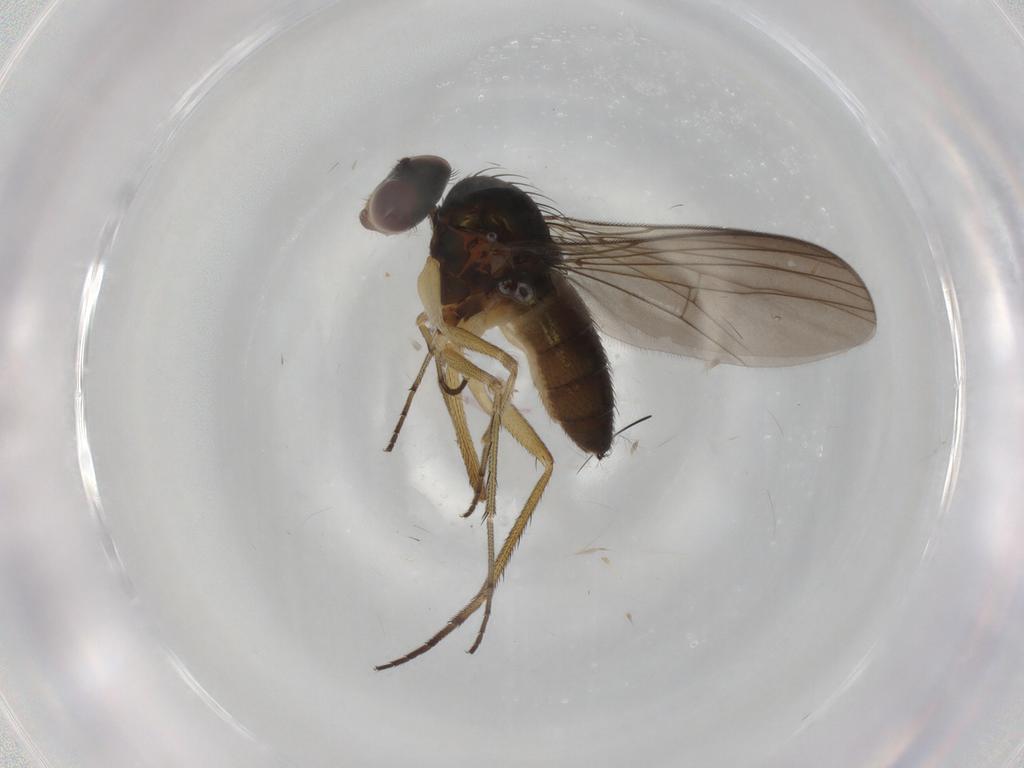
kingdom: Animalia
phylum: Arthropoda
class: Insecta
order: Diptera
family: Dolichopodidae
